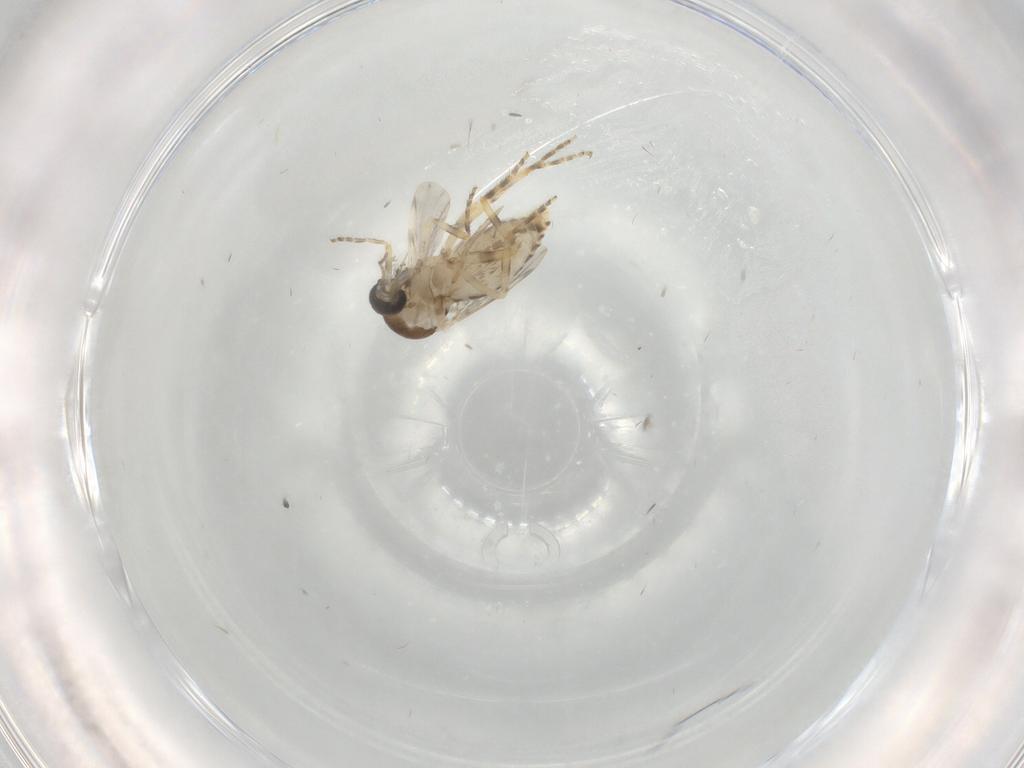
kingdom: Animalia
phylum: Arthropoda
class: Insecta
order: Diptera
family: Ceratopogonidae
